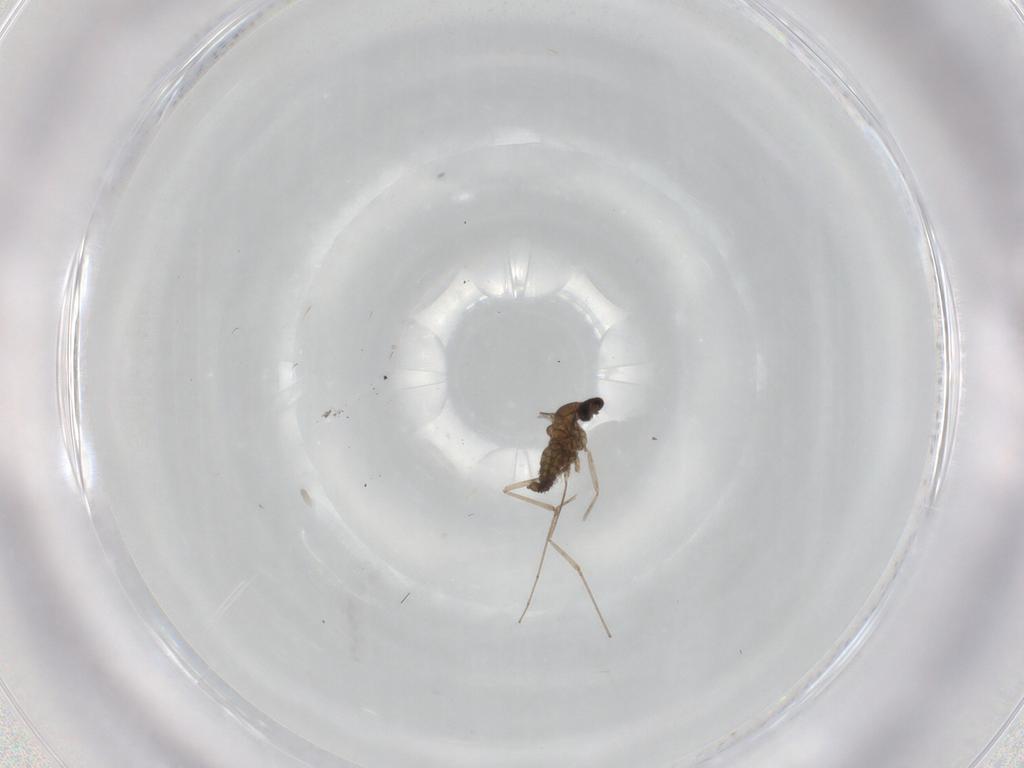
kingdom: Animalia
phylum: Arthropoda
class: Insecta
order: Diptera
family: Cecidomyiidae
